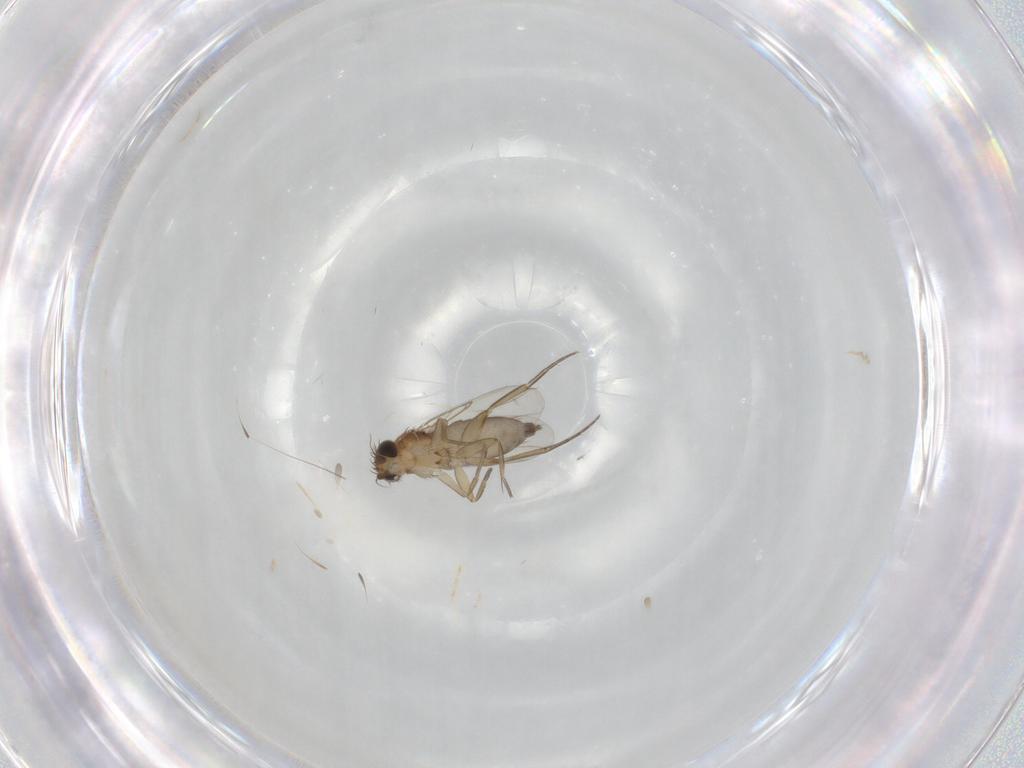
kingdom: Animalia
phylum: Arthropoda
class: Insecta
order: Diptera
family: Phoridae
